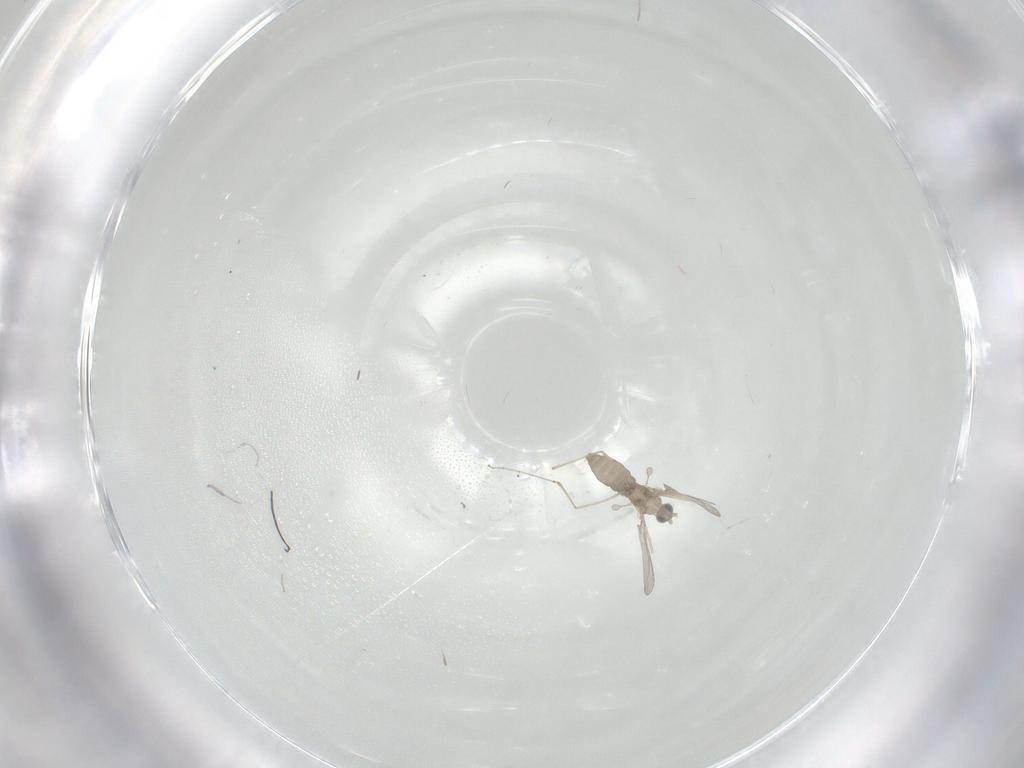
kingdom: Animalia
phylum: Arthropoda
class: Insecta
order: Diptera
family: Cecidomyiidae
